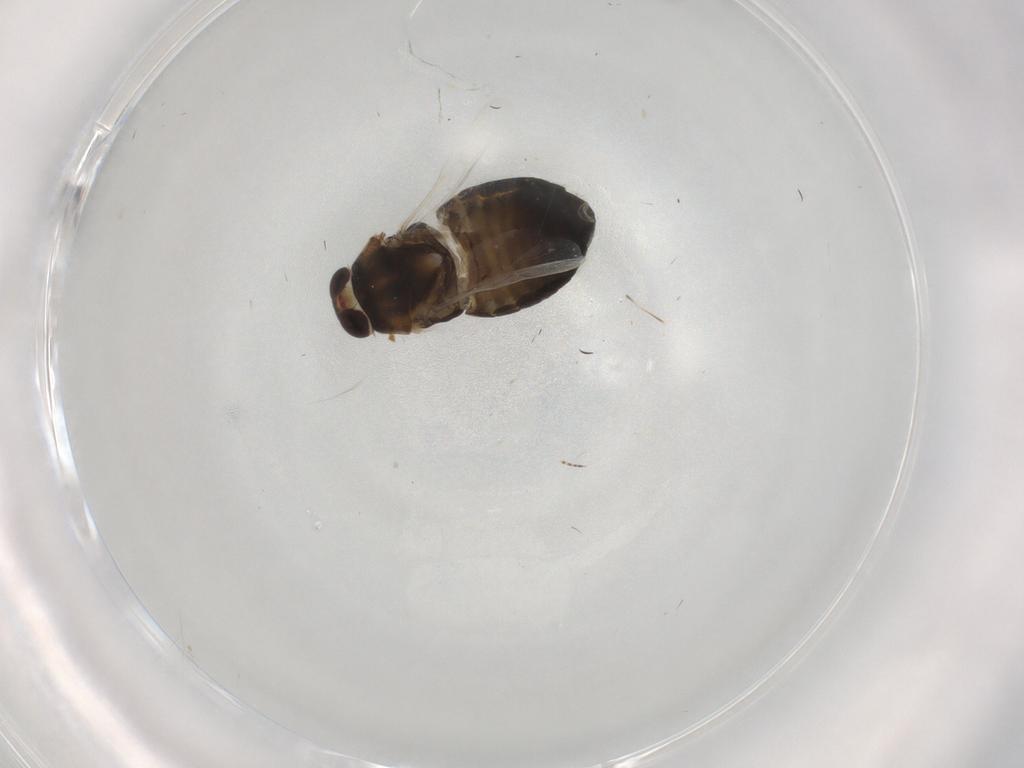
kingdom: Animalia
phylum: Arthropoda
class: Insecta
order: Hemiptera
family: Miridae
